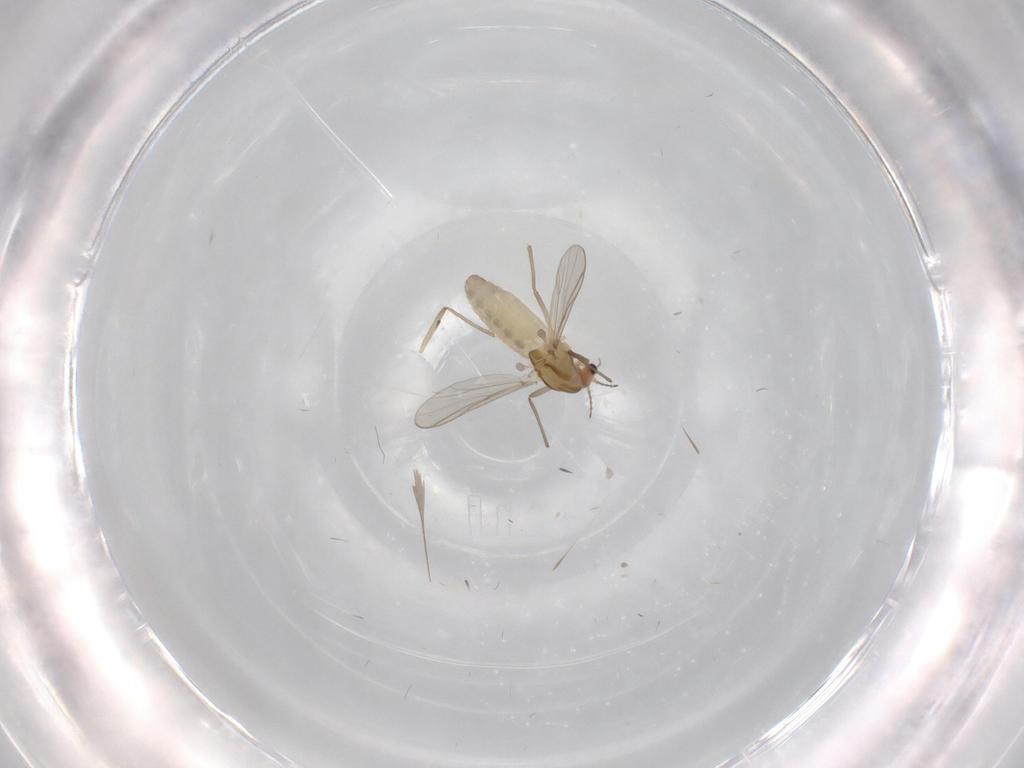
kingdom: Animalia
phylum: Arthropoda
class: Insecta
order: Diptera
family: Chironomidae
